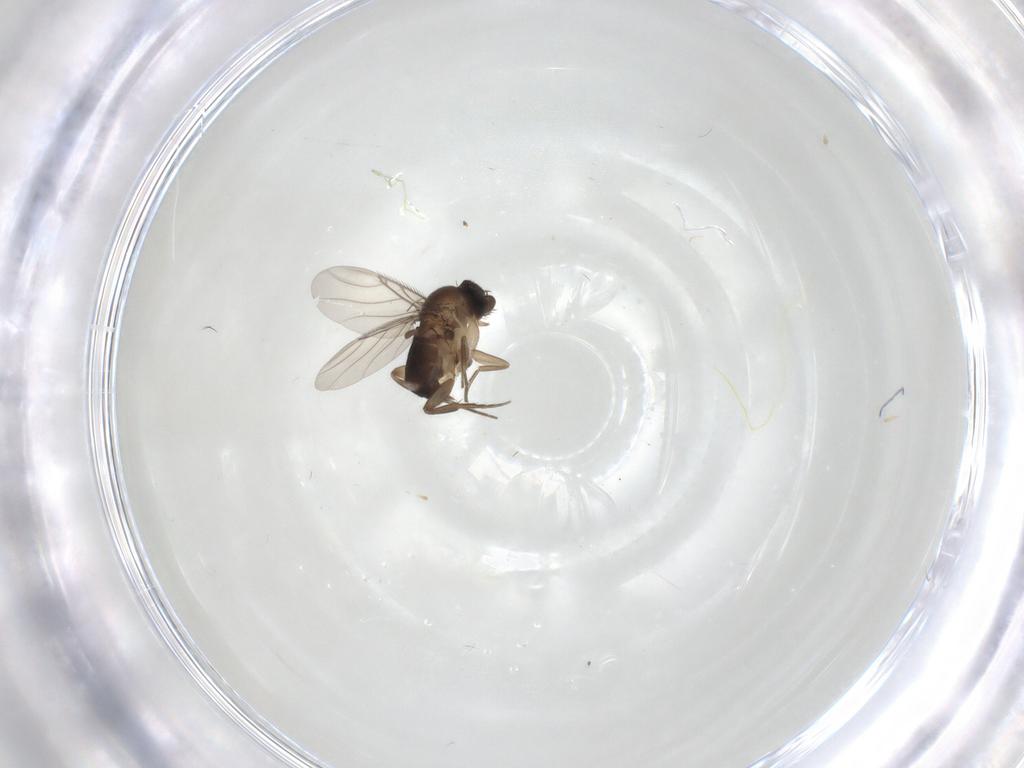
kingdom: Animalia
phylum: Arthropoda
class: Insecta
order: Diptera
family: Phoridae
